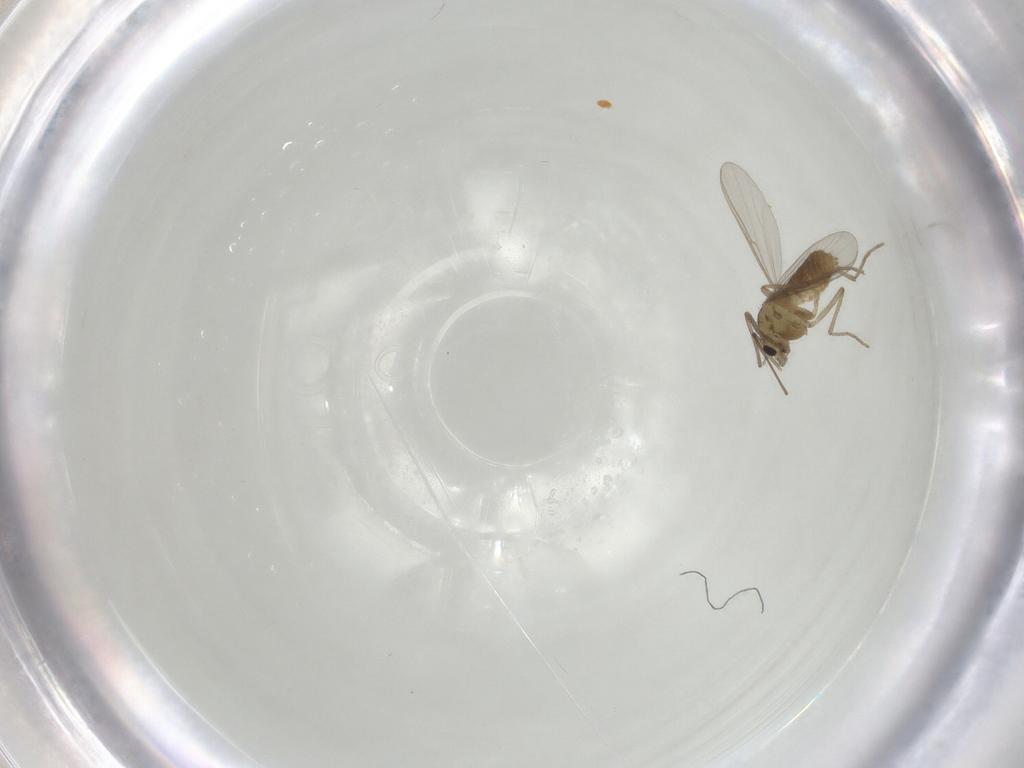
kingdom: Animalia
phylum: Arthropoda
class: Insecta
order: Diptera
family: Chironomidae
